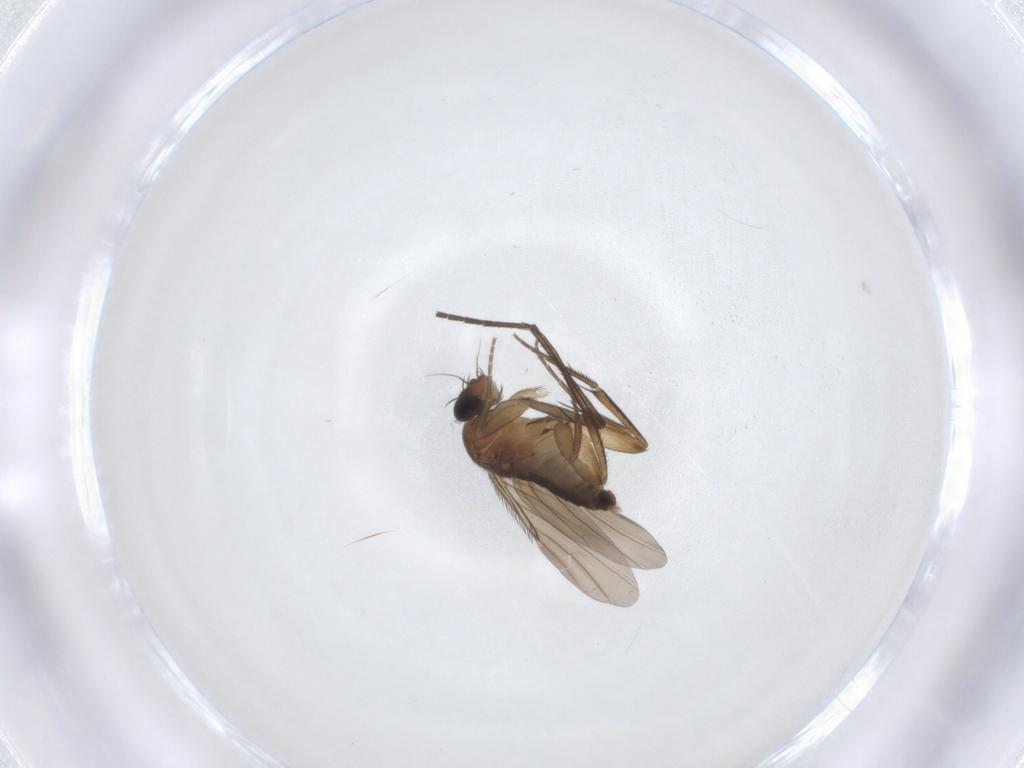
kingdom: Animalia
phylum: Arthropoda
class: Insecta
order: Diptera
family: Phoridae
